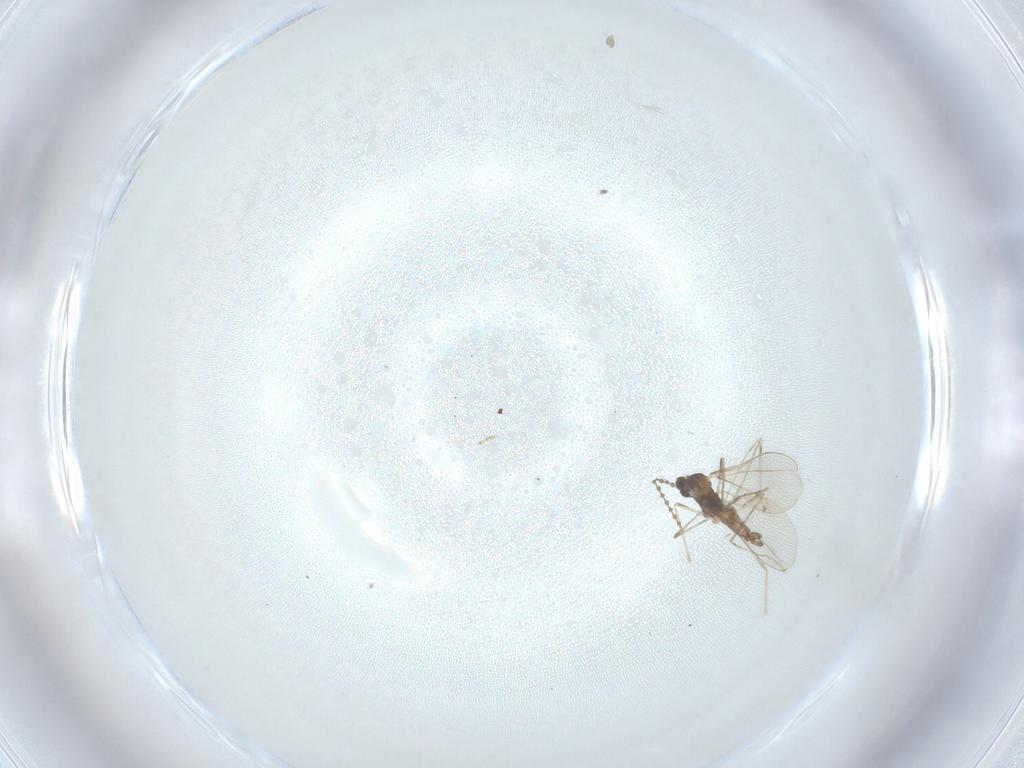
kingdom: Animalia
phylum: Arthropoda
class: Insecta
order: Diptera
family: Cecidomyiidae
